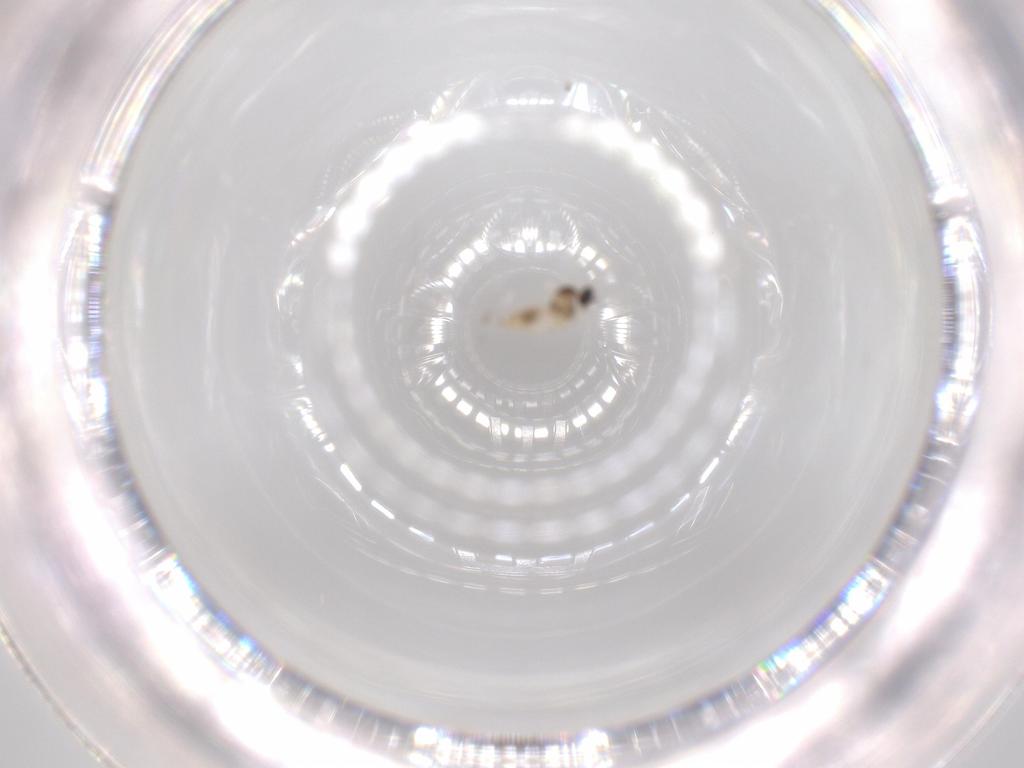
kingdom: Animalia
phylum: Arthropoda
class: Insecta
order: Diptera
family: Cecidomyiidae
